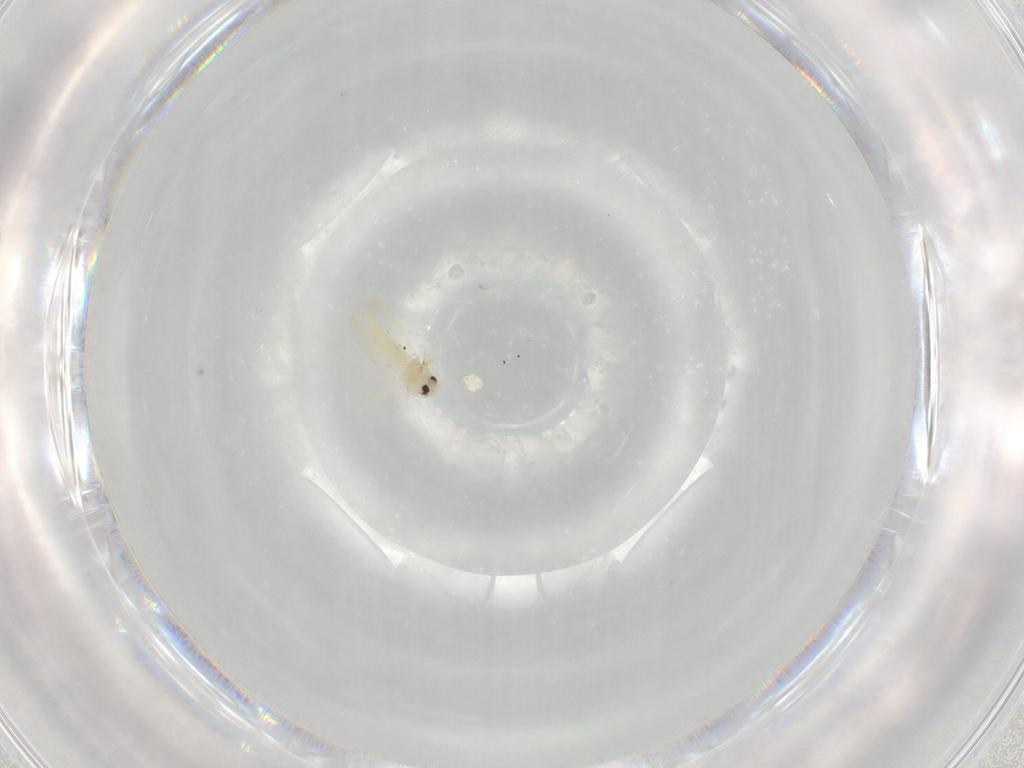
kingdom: Animalia
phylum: Arthropoda
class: Insecta
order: Hemiptera
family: Aleyrodidae
